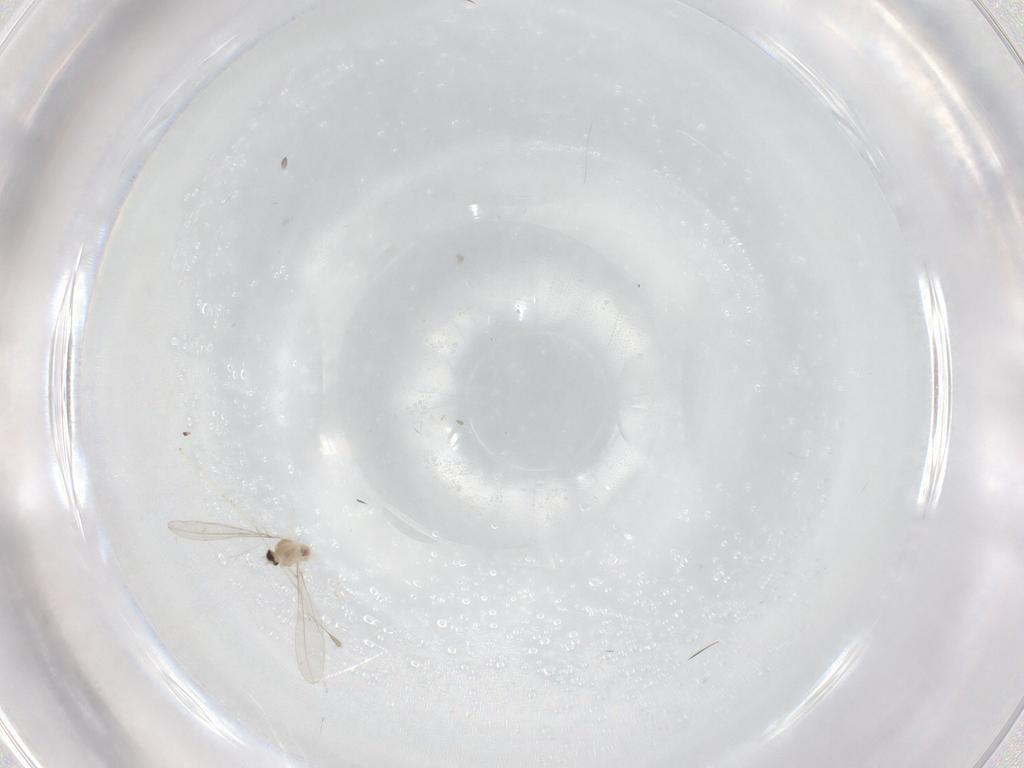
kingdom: Animalia
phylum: Arthropoda
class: Insecta
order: Diptera
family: Cecidomyiidae
